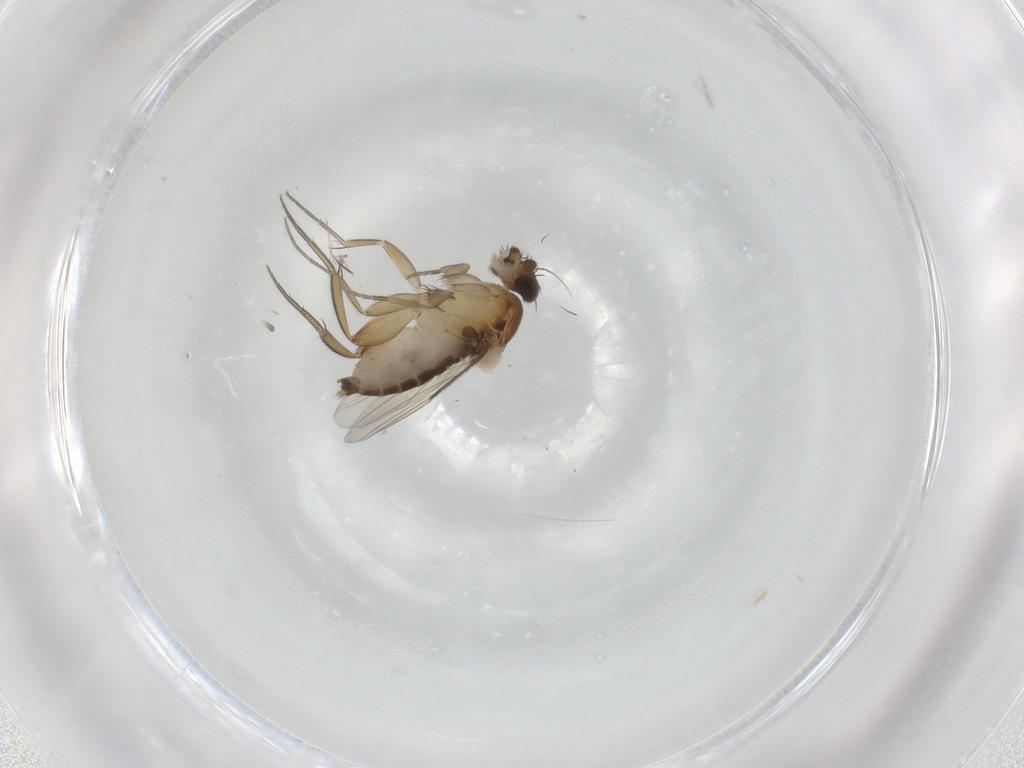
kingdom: Animalia
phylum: Arthropoda
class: Insecta
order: Diptera
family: Phoridae
